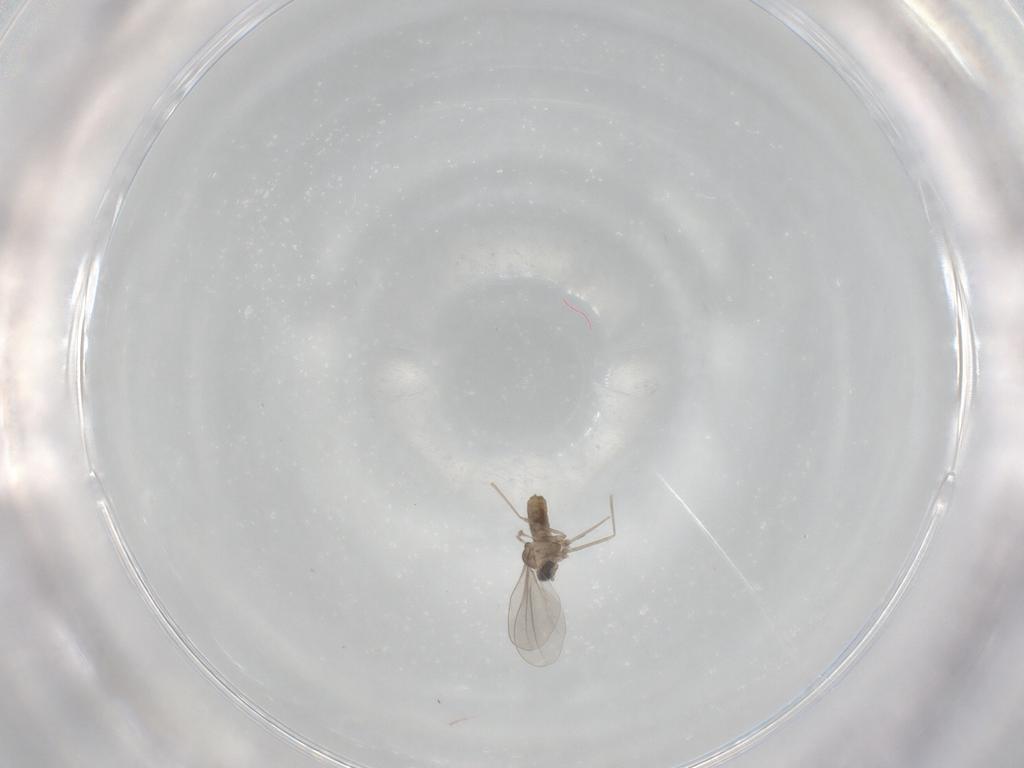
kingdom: Animalia
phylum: Arthropoda
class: Insecta
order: Diptera
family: Cecidomyiidae
